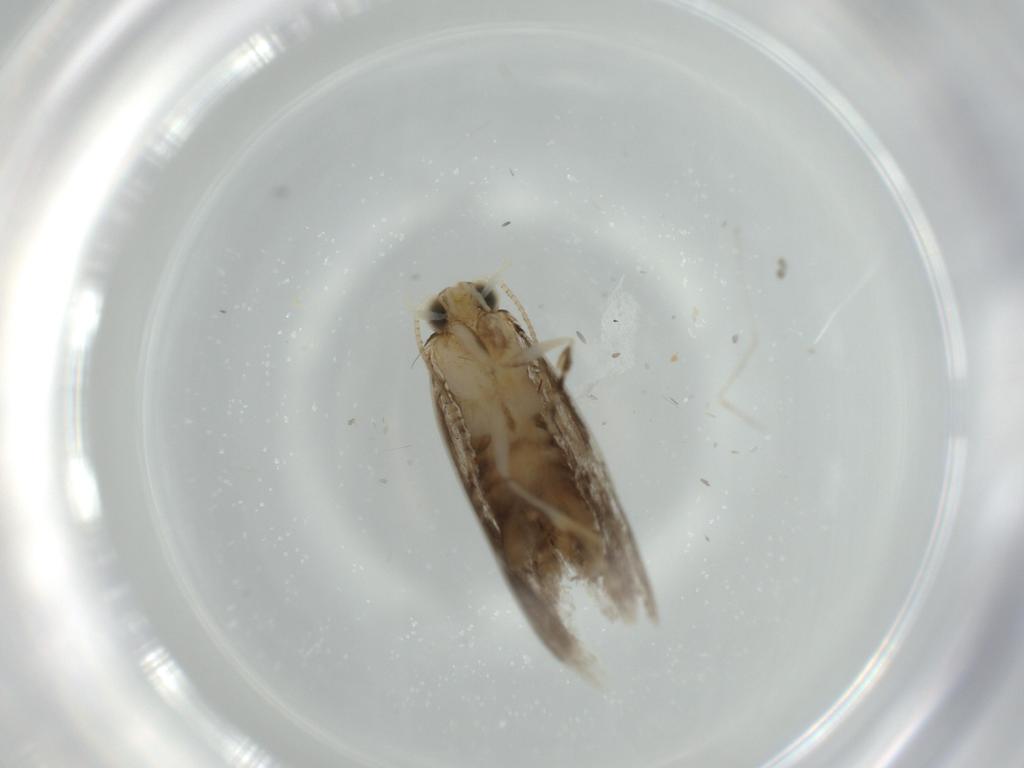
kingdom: Animalia
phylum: Arthropoda
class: Insecta
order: Lepidoptera
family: Tineidae
